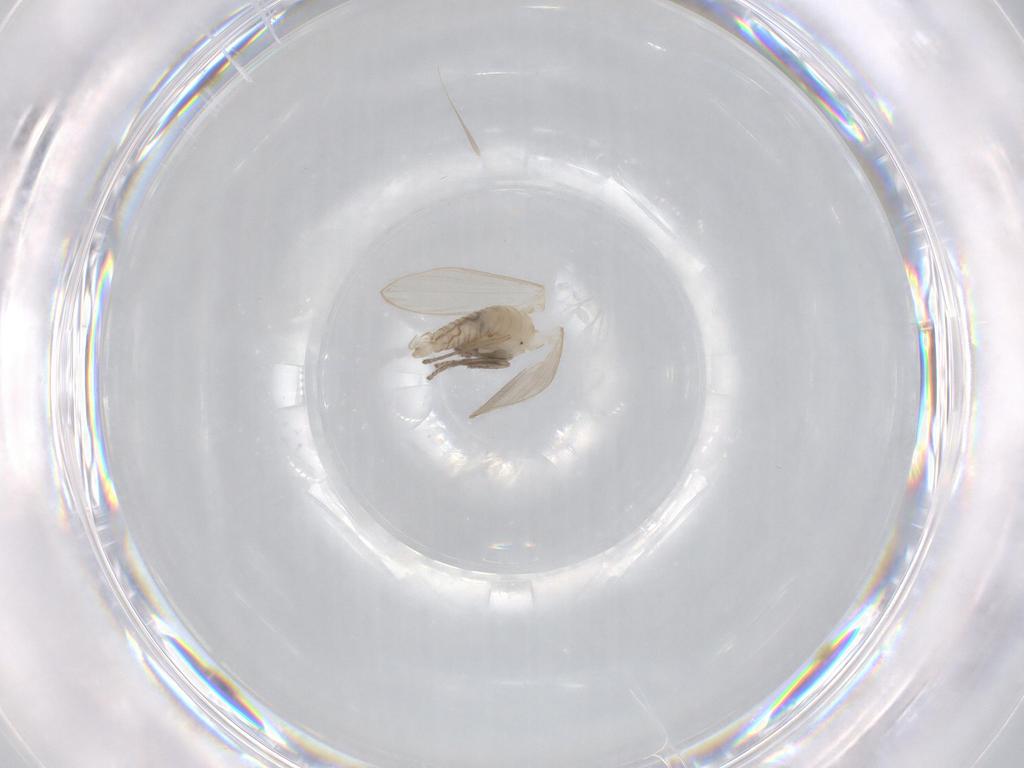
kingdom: Animalia
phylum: Arthropoda
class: Insecta
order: Diptera
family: Psychodidae
